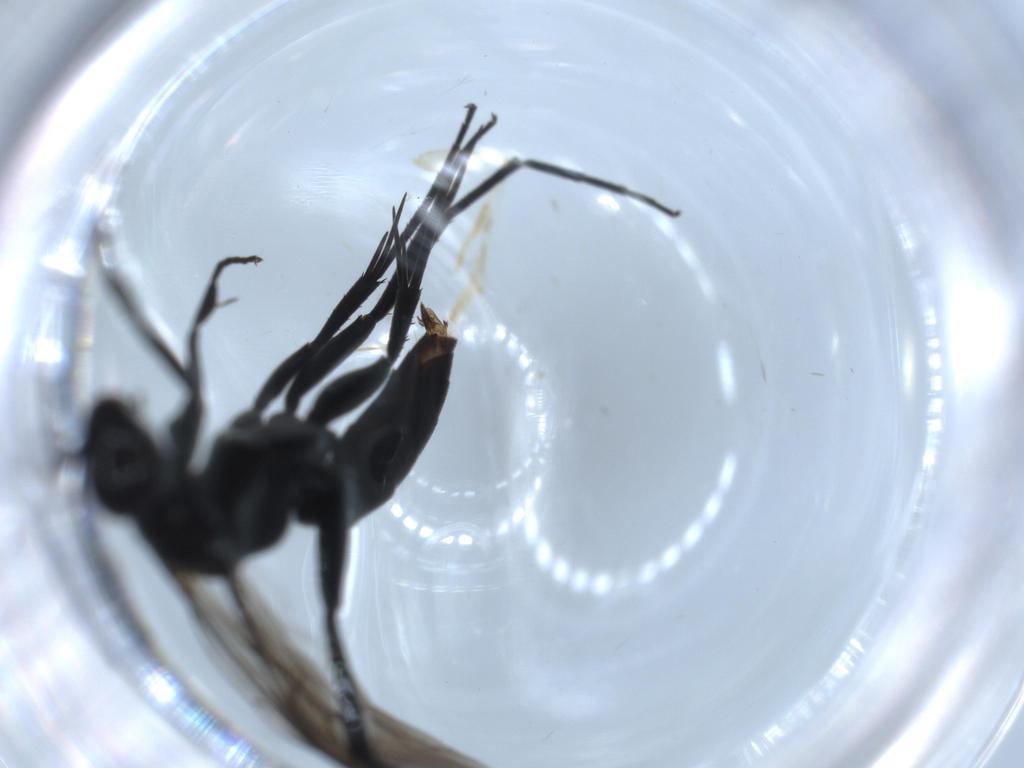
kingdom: Animalia
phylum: Arthropoda
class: Insecta
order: Hymenoptera
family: Pompilidae
